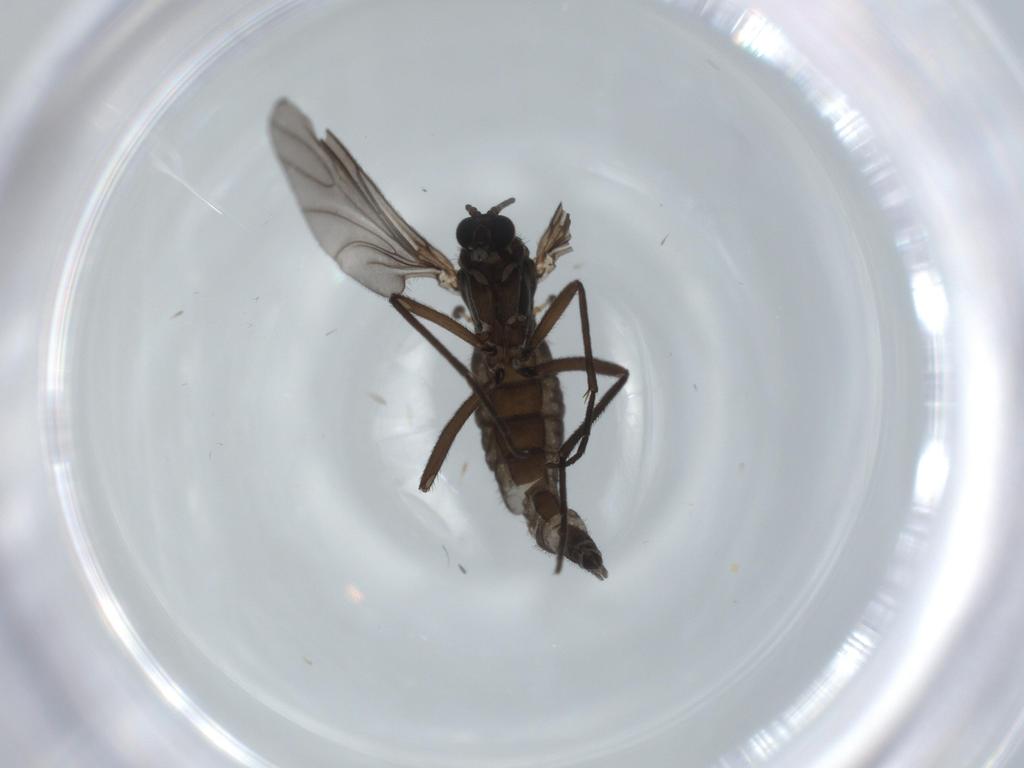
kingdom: Animalia
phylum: Arthropoda
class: Insecta
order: Diptera
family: Sciaridae
